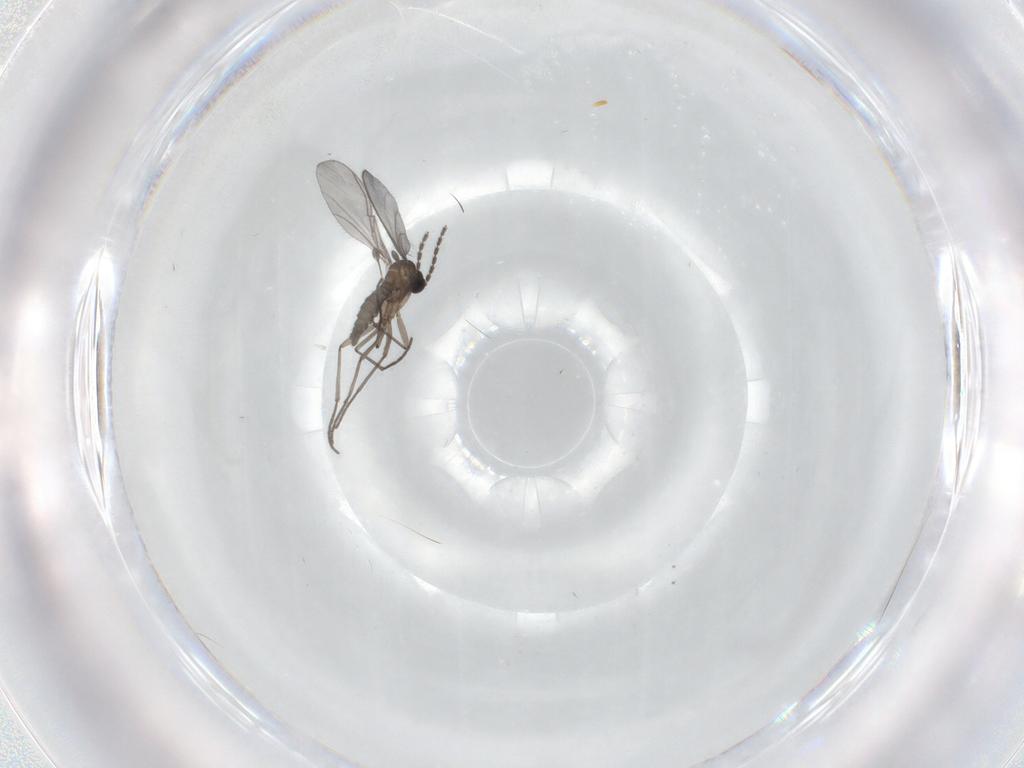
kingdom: Animalia
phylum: Arthropoda
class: Insecta
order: Diptera
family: Sciaridae
